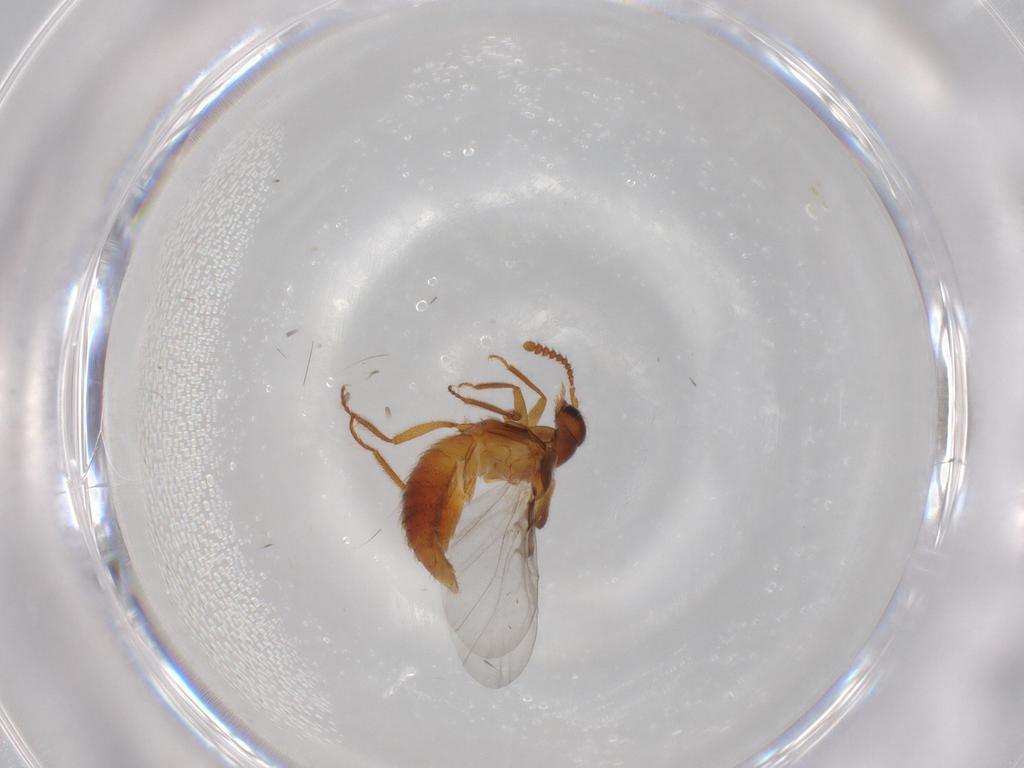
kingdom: Animalia
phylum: Arthropoda
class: Insecta
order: Coleoptera
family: Staphylinidae
